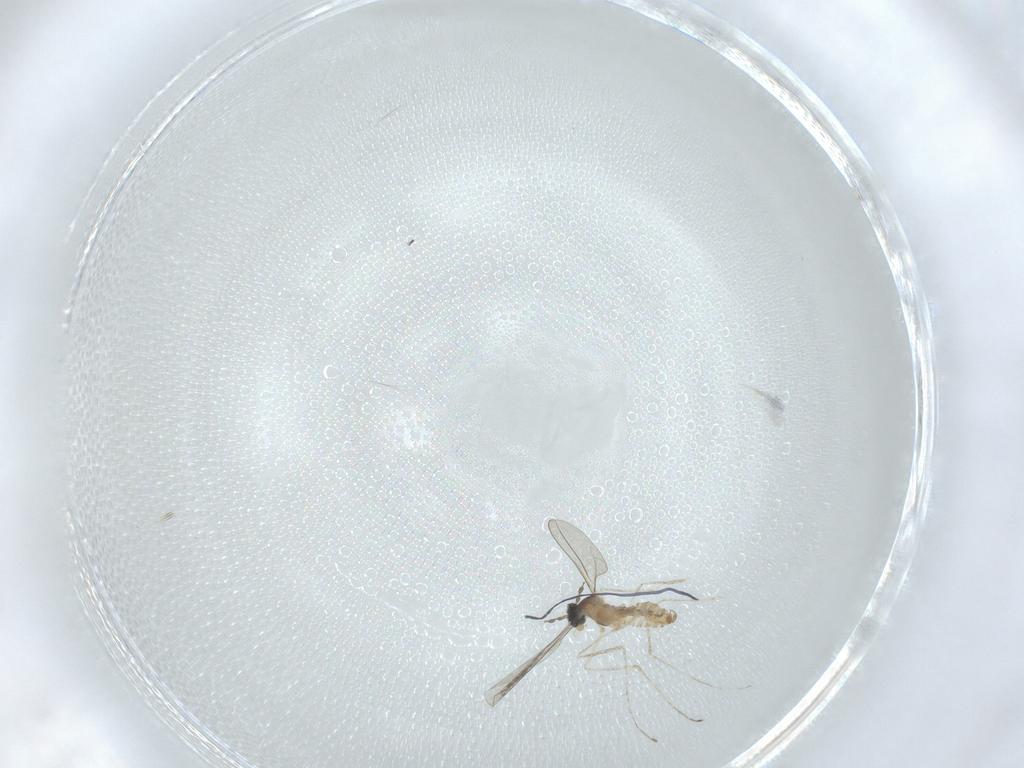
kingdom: Animalia
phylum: Arthropoda
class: Insecta
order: Diptera
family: Cecidomyiidae
